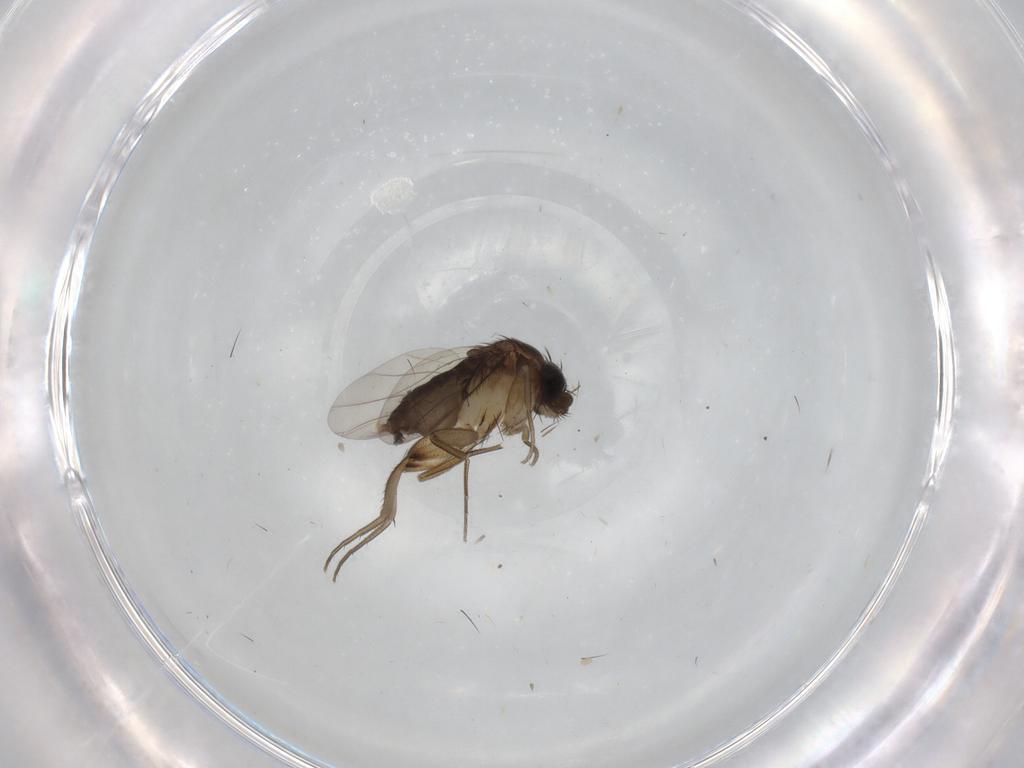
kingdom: Animalia
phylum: Arthropoda
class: Insecta
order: Diptera
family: Phoridae
